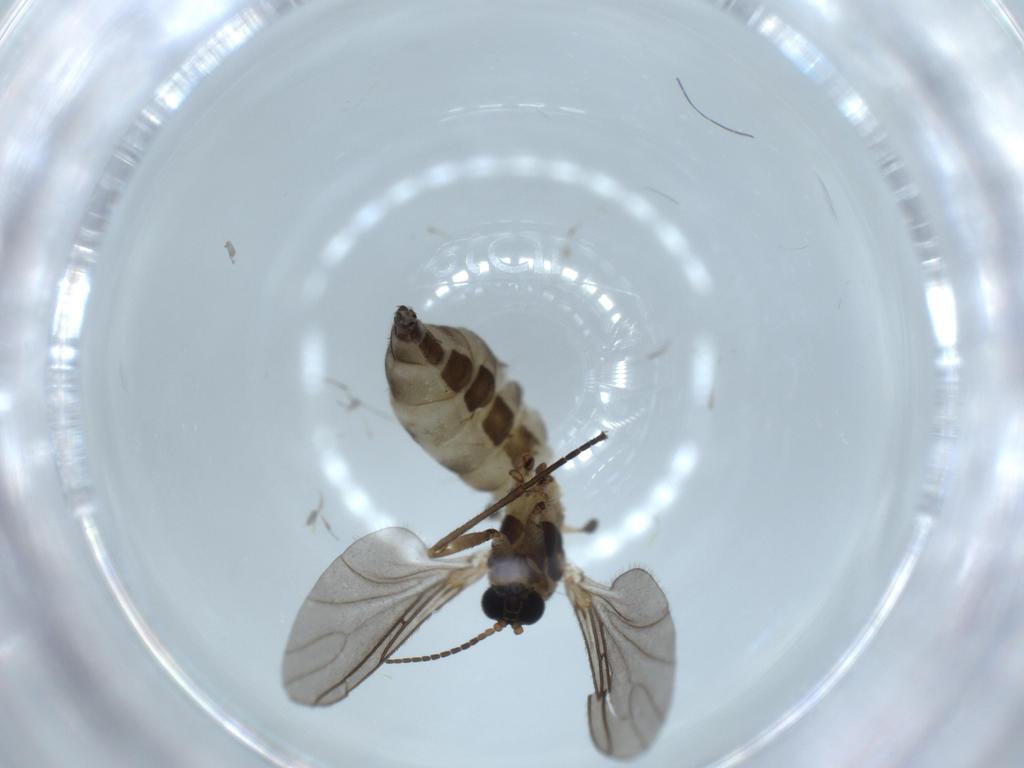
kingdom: Animalia
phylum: Arthropoda
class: Insecta
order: Diptera
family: Sciaridae
